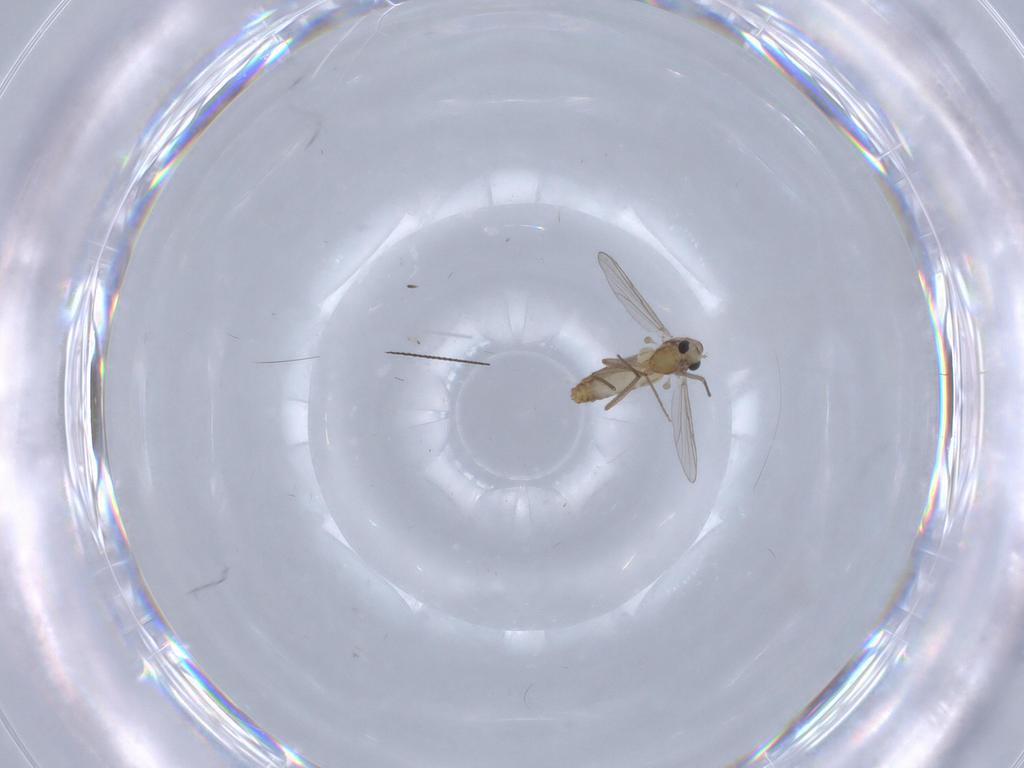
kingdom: Animalia
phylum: Arthropoda
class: Insecta
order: Diptera
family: Chironomidae
